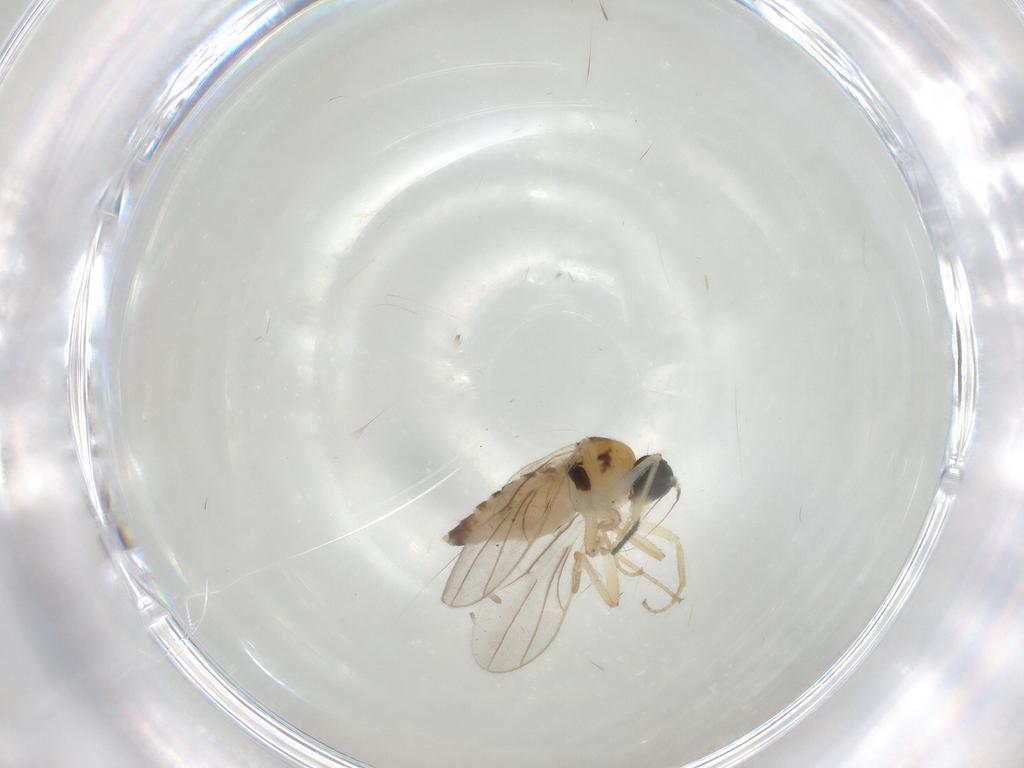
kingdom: Animalia
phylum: Arthropoda
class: Insecta
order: Diptera
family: Hybotidae
